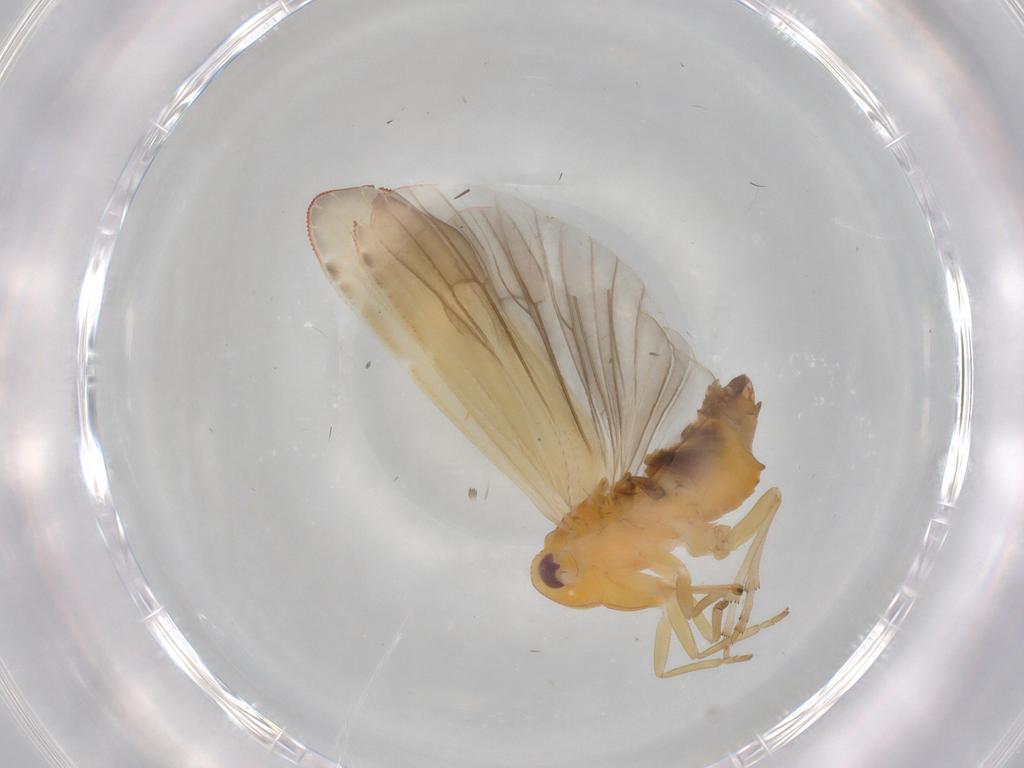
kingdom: Animalia
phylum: Arthropoda
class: Insecta
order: Hemiptera
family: Derbidae
